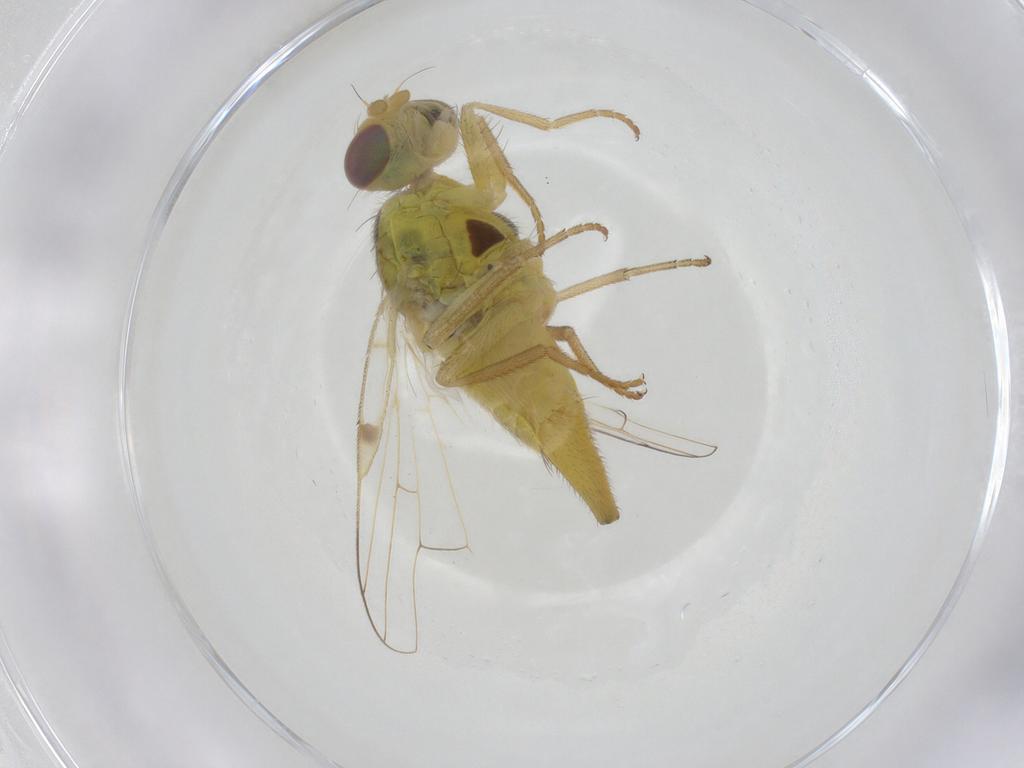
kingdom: Animalia
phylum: Arthropoda
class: Insecta
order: Diptera
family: Tephritidae
